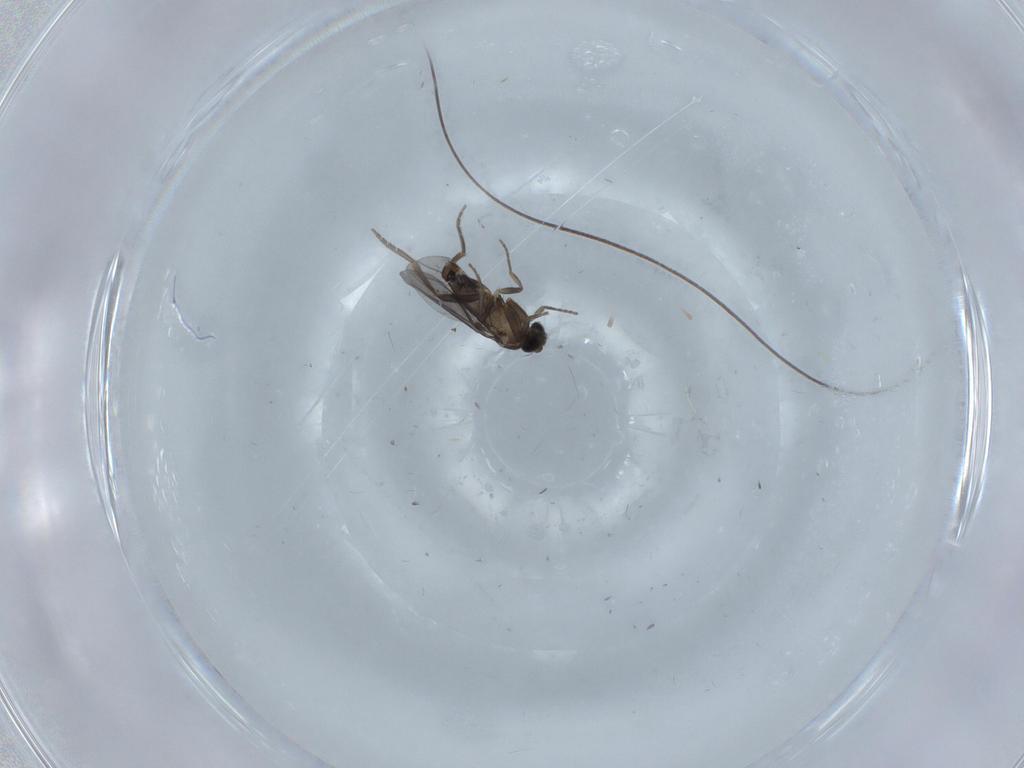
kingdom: Animalia
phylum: Arthropoda
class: Insecta
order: Diptera
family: Chironomidae
